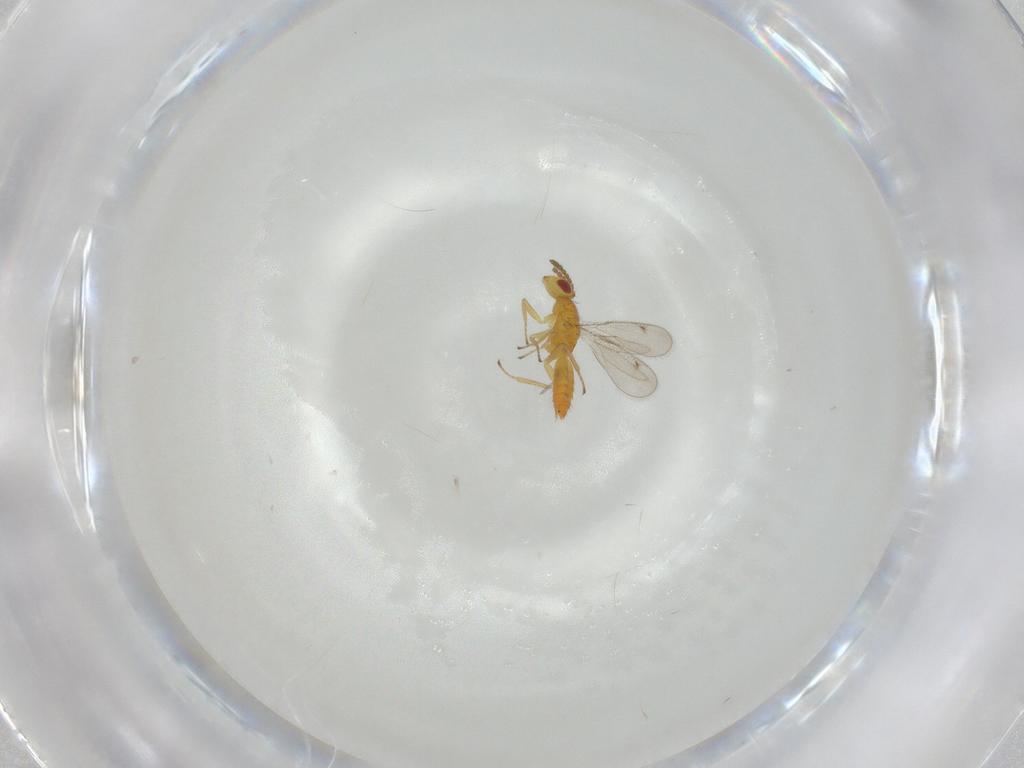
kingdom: Animalia
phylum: Arthropoda
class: Insecta
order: Hymenoptera
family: Eulophidae
